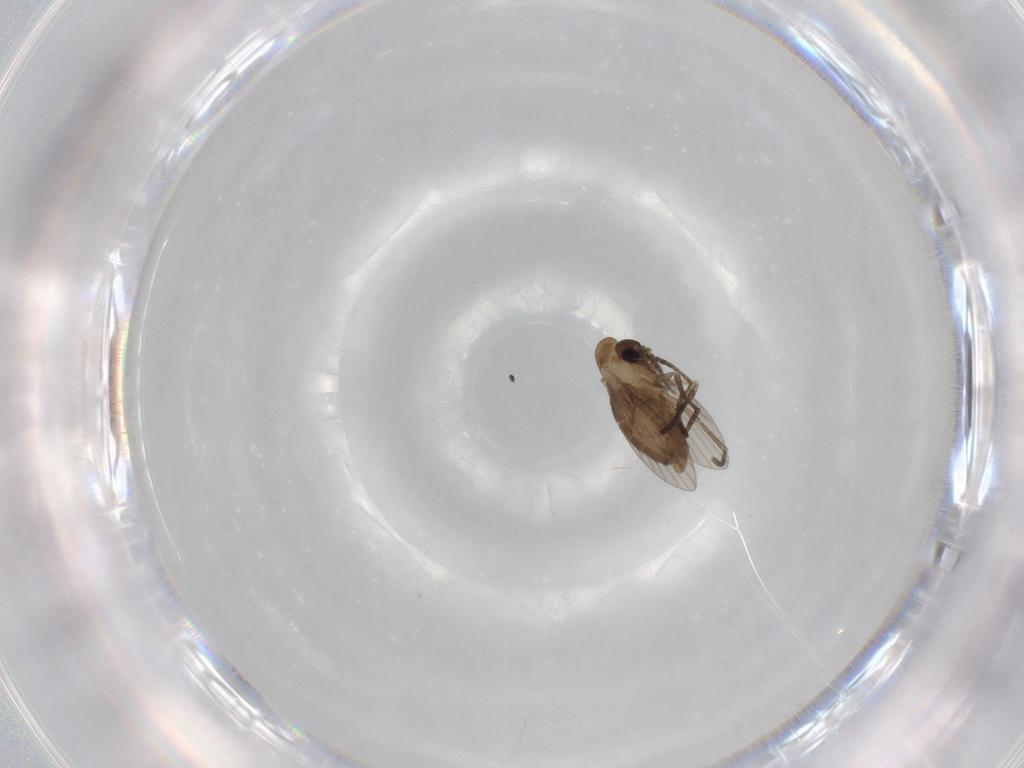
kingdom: Animalia
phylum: Arthropoda
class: Insecta
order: Diptera
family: Psychodidae
